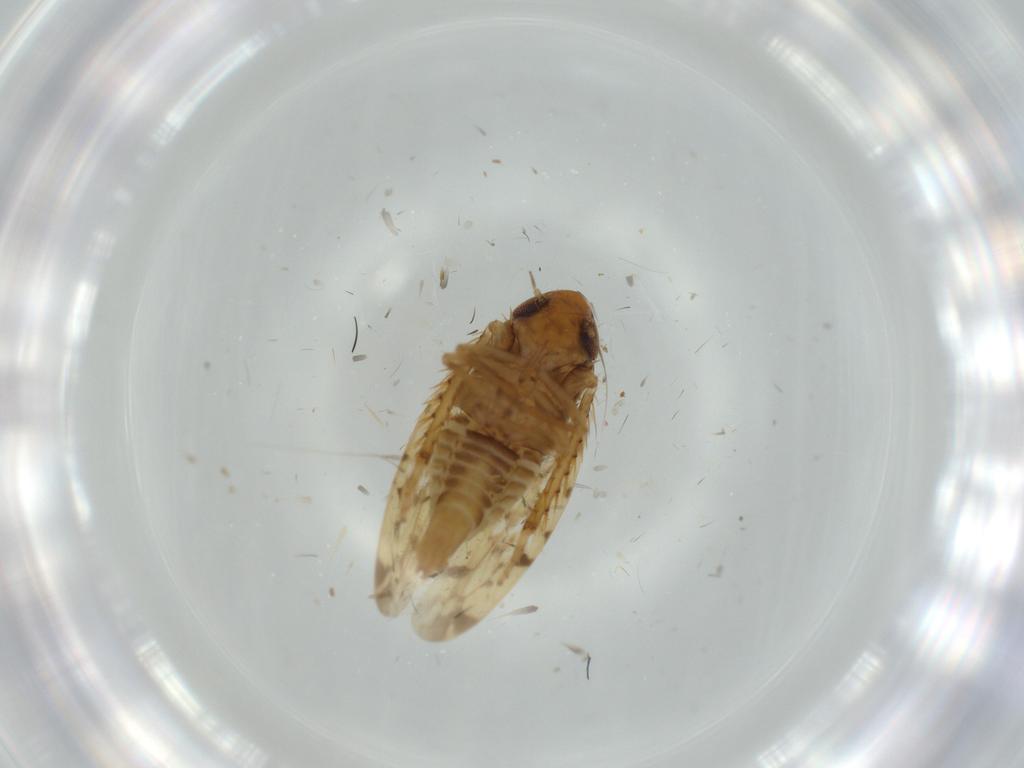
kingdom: Animalia
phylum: Arthropoda
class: Insecta
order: Hemiptera
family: Cicadellidae
